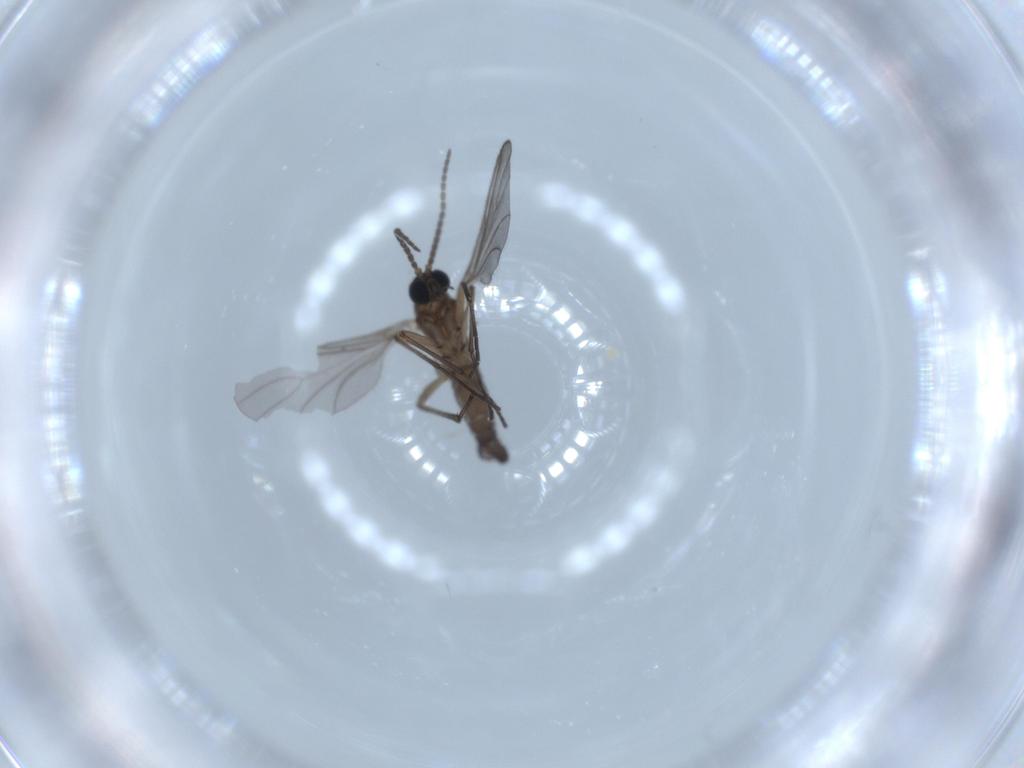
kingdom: Animalia
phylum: Arthropoda
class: Insecta
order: Diptera
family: Sciaridae
